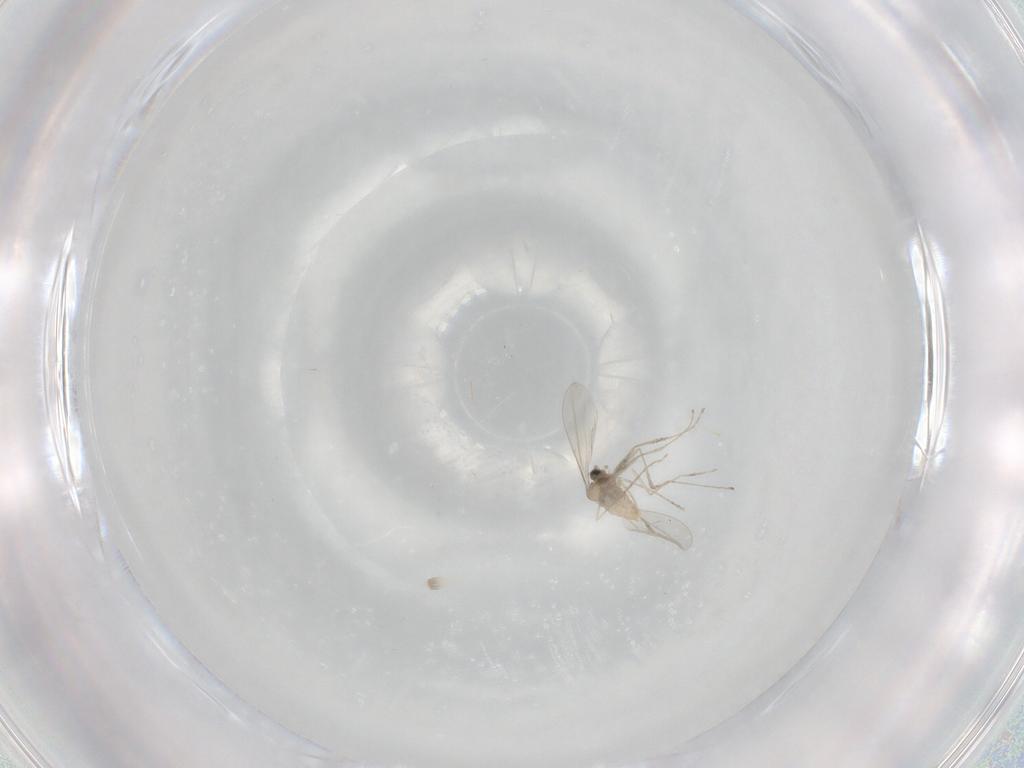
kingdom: Animalia
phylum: Arthropoda
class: Insecta
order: Diptera
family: Cecidomyiidae
